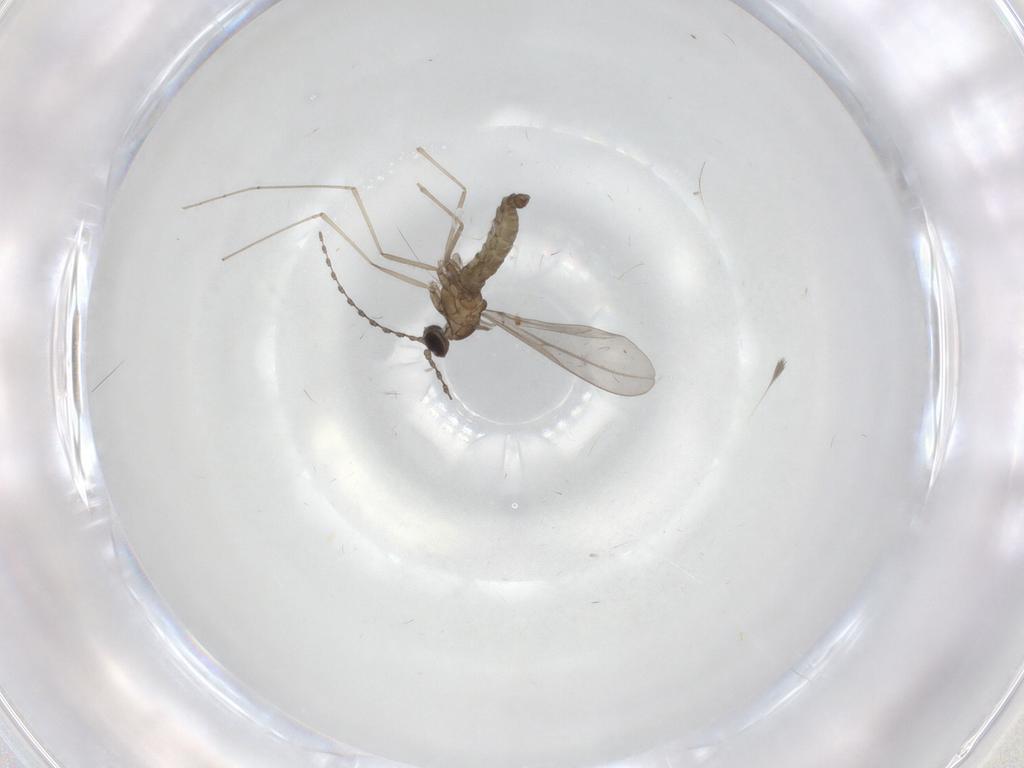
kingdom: Animalia
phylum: Arthropoda
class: Insecta
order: Diptera
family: Cecidomyiidae
